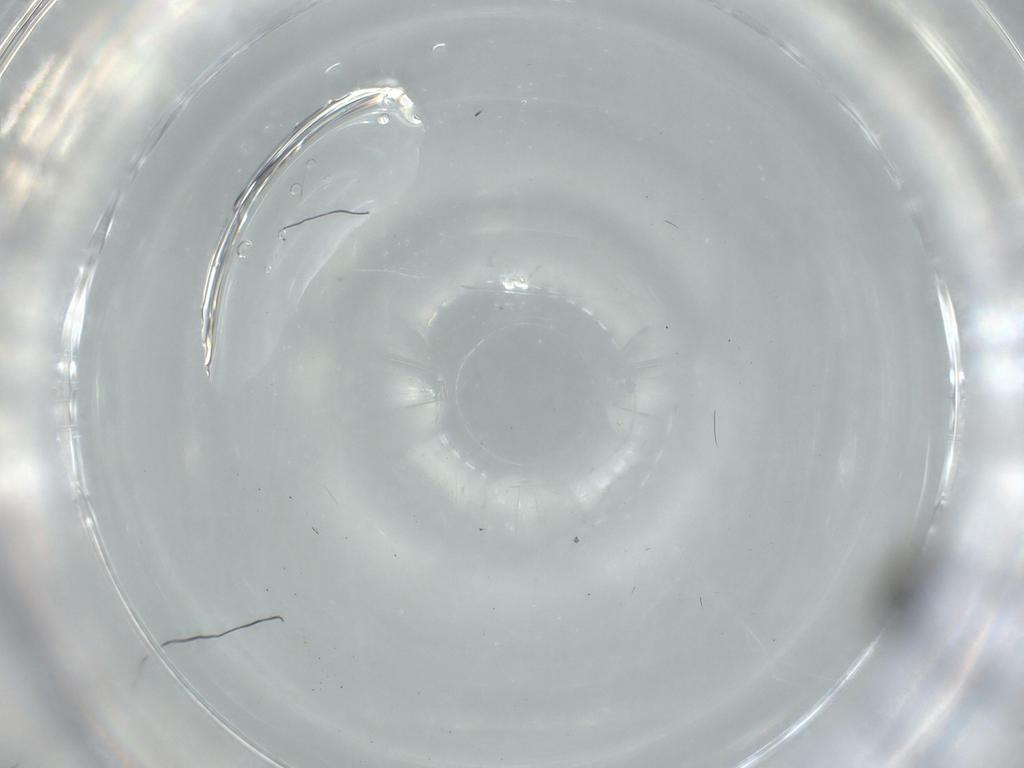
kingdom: Animalia
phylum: Arthropoda
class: Insecta
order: Diptera
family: Sciaridae
